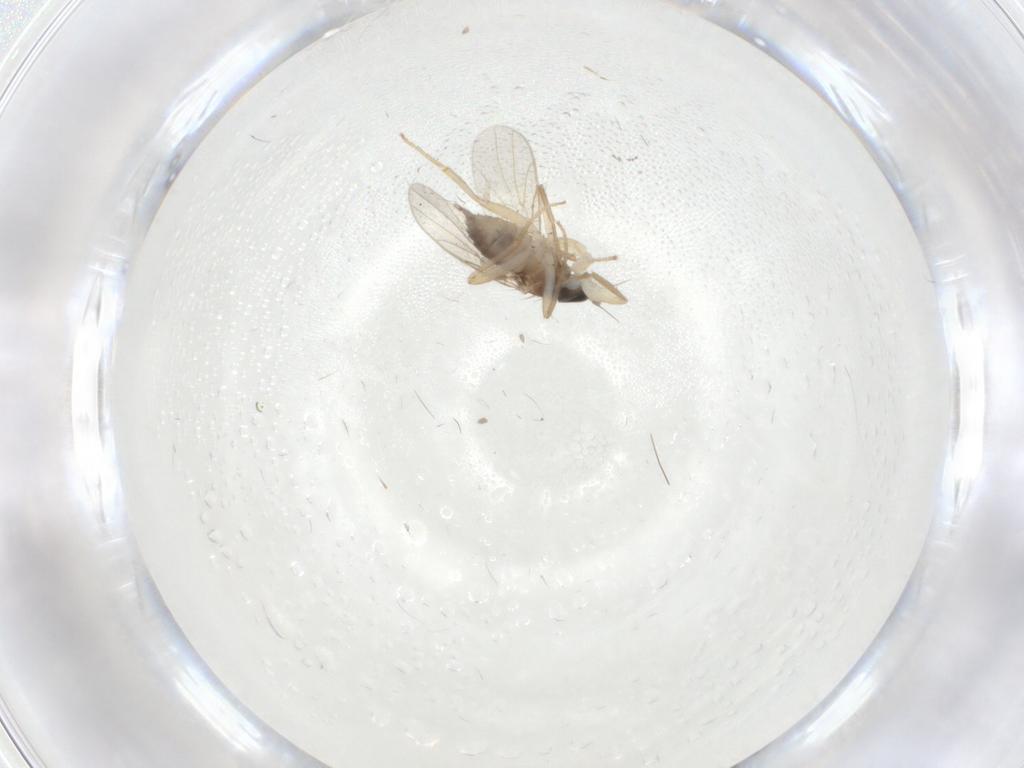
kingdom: Animalia
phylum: Arthropoda
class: Insecta
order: Diptera
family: Hybotidae
